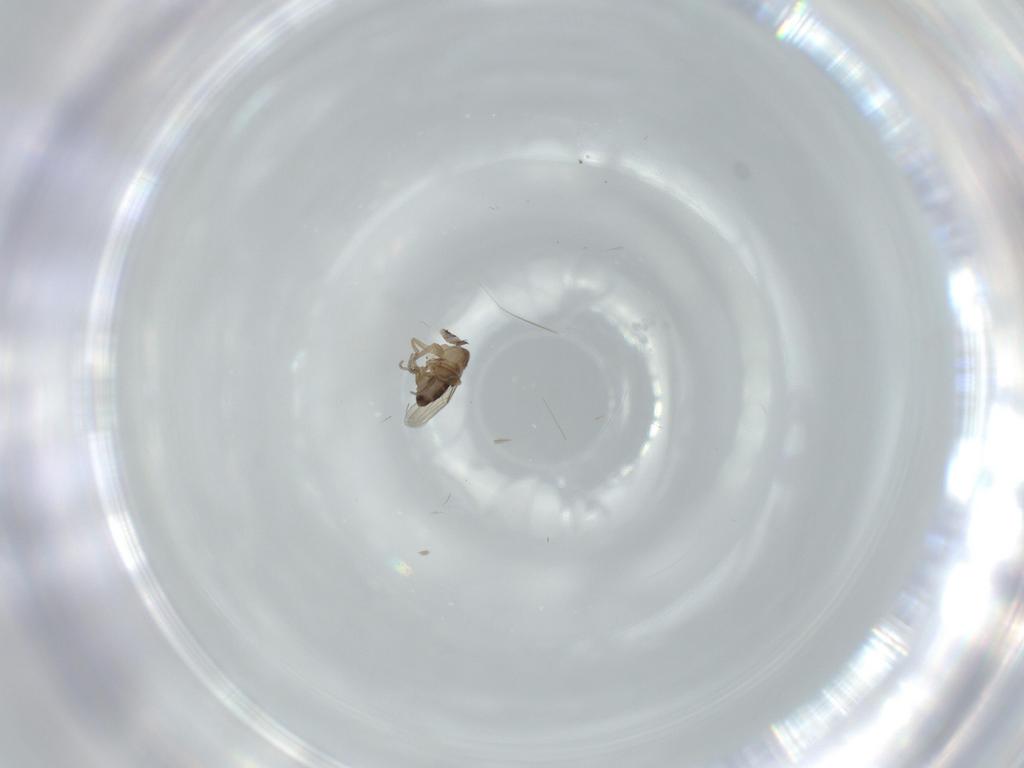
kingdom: Animalia
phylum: Arthropoda
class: Insecta
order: Diptera
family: Phoridae
